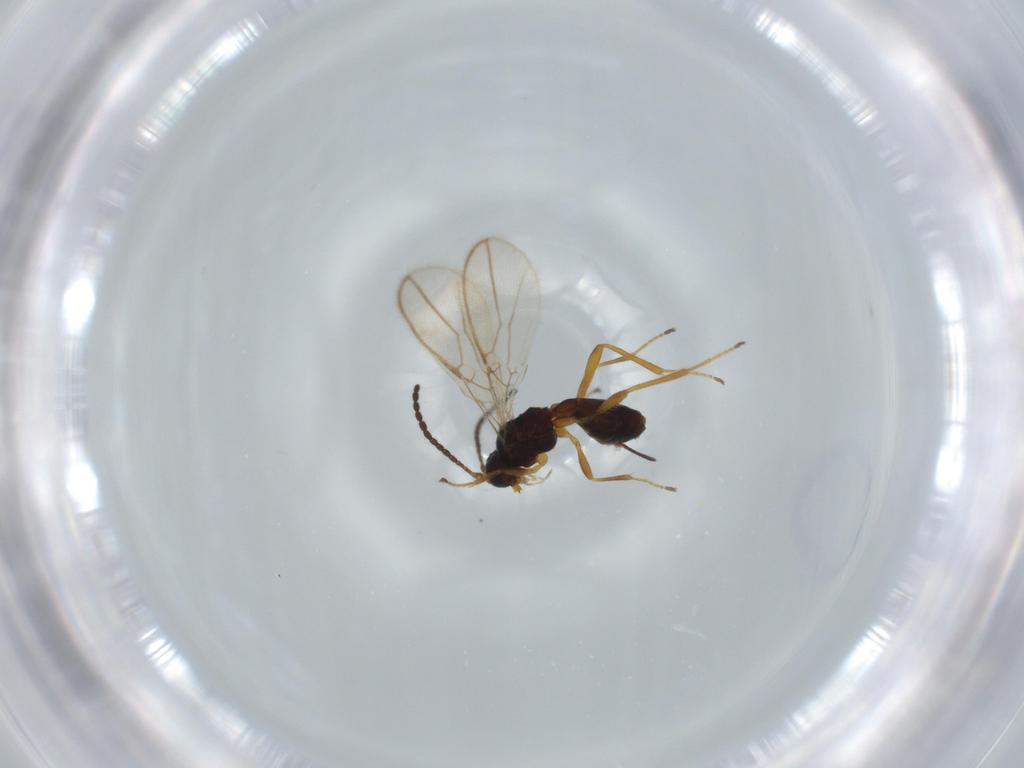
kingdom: Animalia
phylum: Arthropoda
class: Insecta
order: Hymenoptera
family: Braconidae
